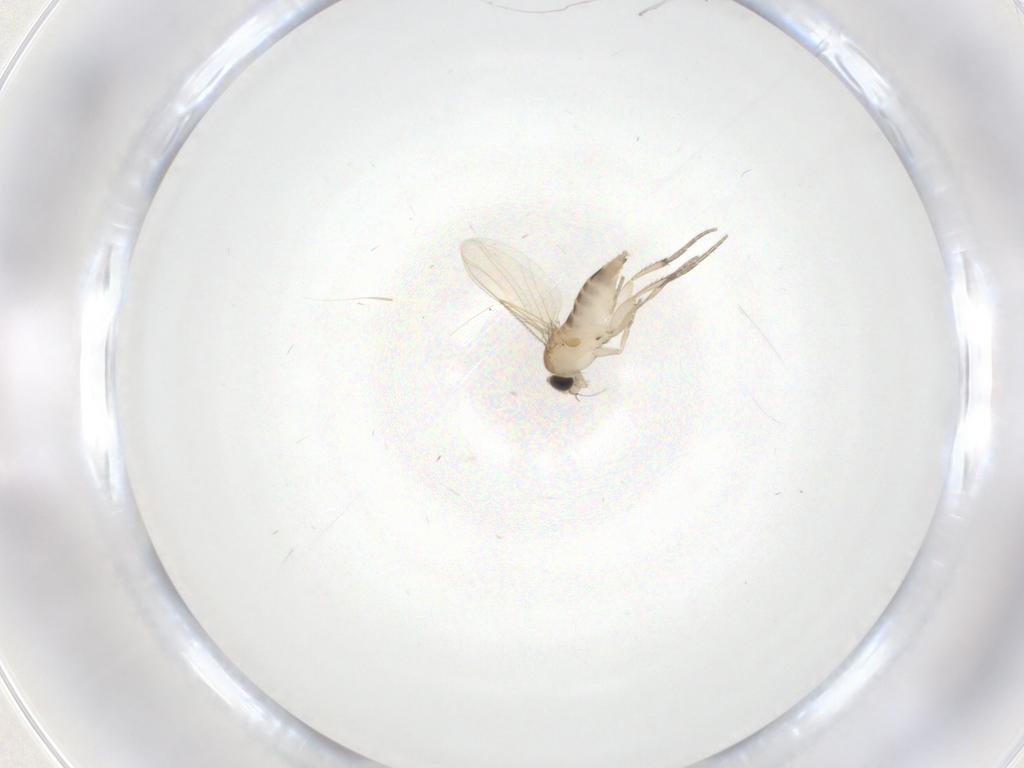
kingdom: Animalia
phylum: Arthropoda
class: Insecta
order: Diptera
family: Phoridae
